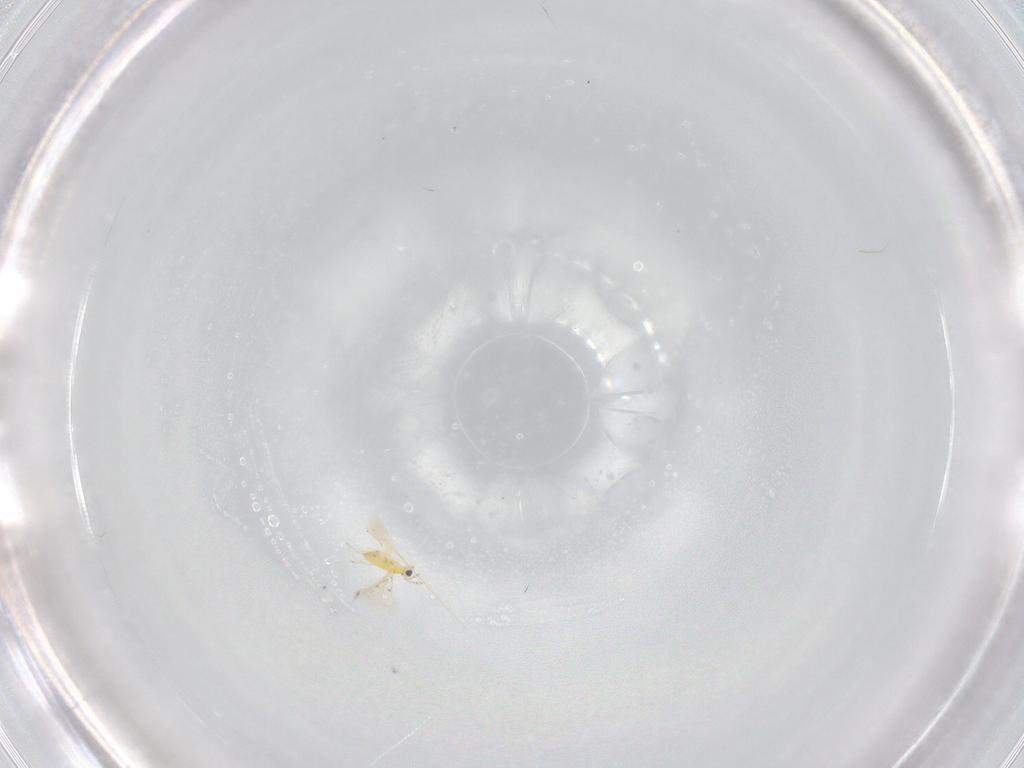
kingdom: Animalia
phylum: Arthropoda
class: Insecta
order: Hymenoptera
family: Trichogrammatidae
